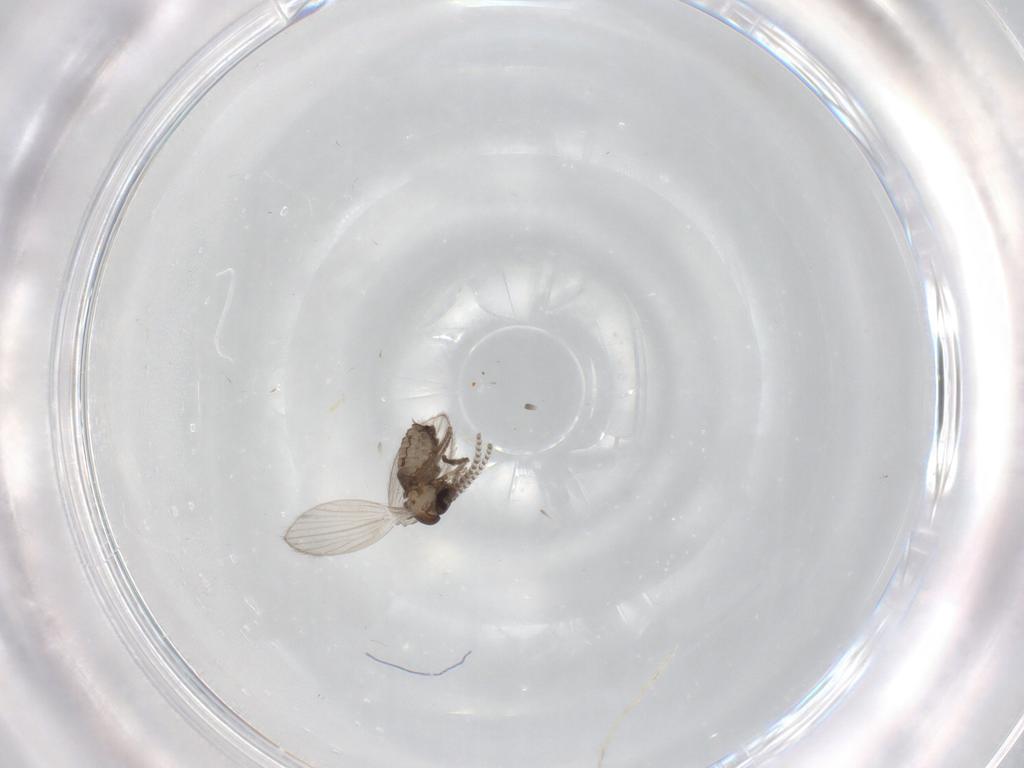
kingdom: Animalia
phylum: Arthropoda
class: Insecta
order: Diptera
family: Psychodidae
